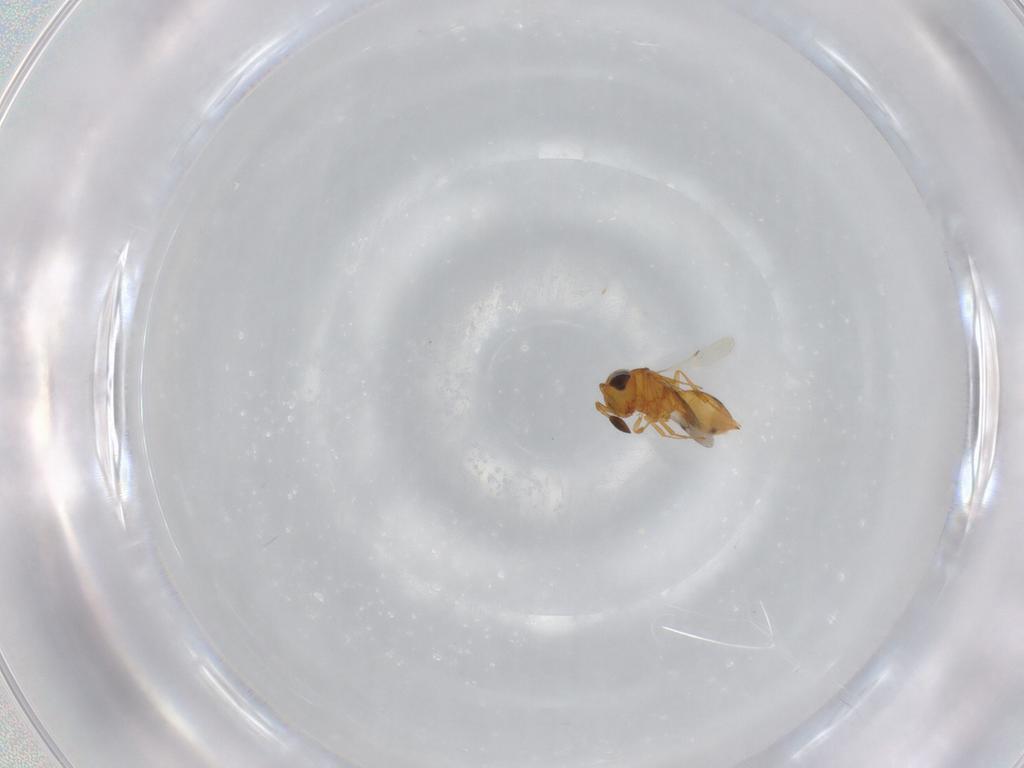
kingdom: Animalia
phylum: Arthropoda
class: Insecta
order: Hymenoptera
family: Scelionidae
